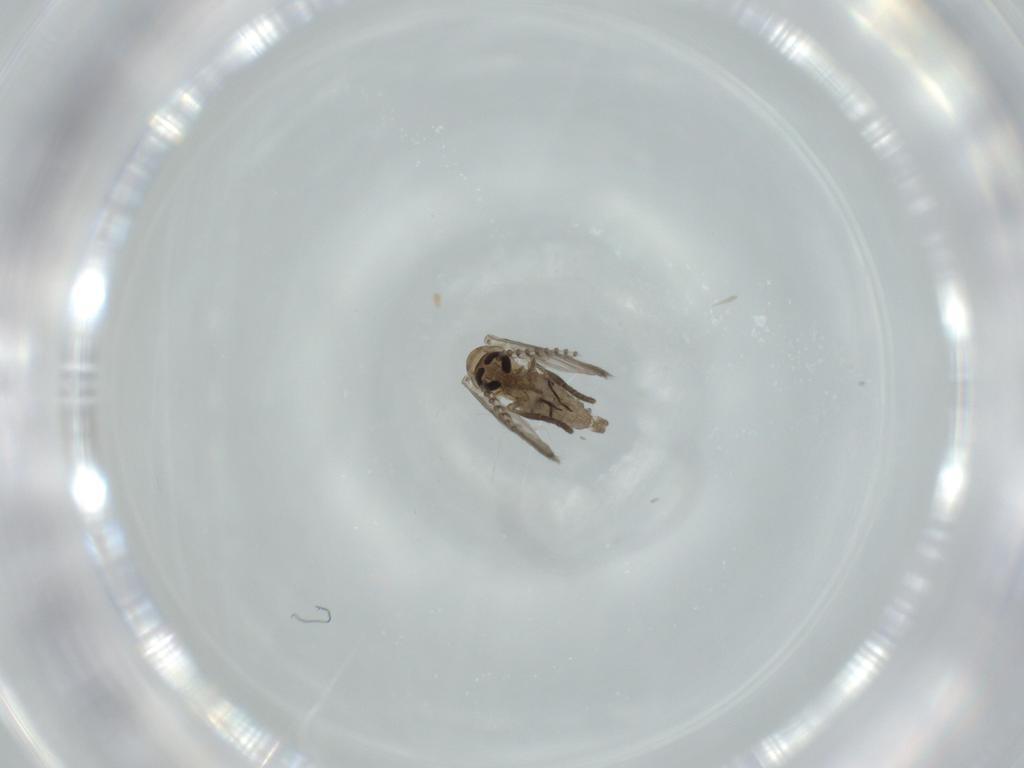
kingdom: Animalia
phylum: Arthropoda
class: Insecta
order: Diptera
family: Psychodidae
